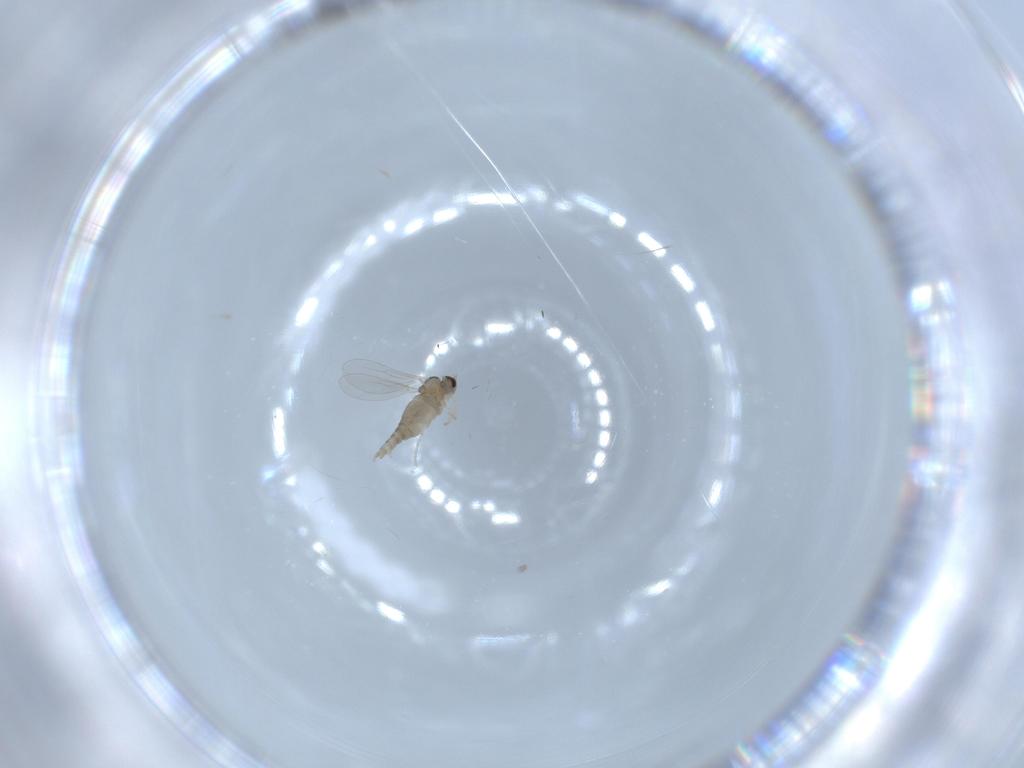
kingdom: Animalia
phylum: Arthropoda
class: Insecta
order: Diptera
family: Cecidomyiidae
